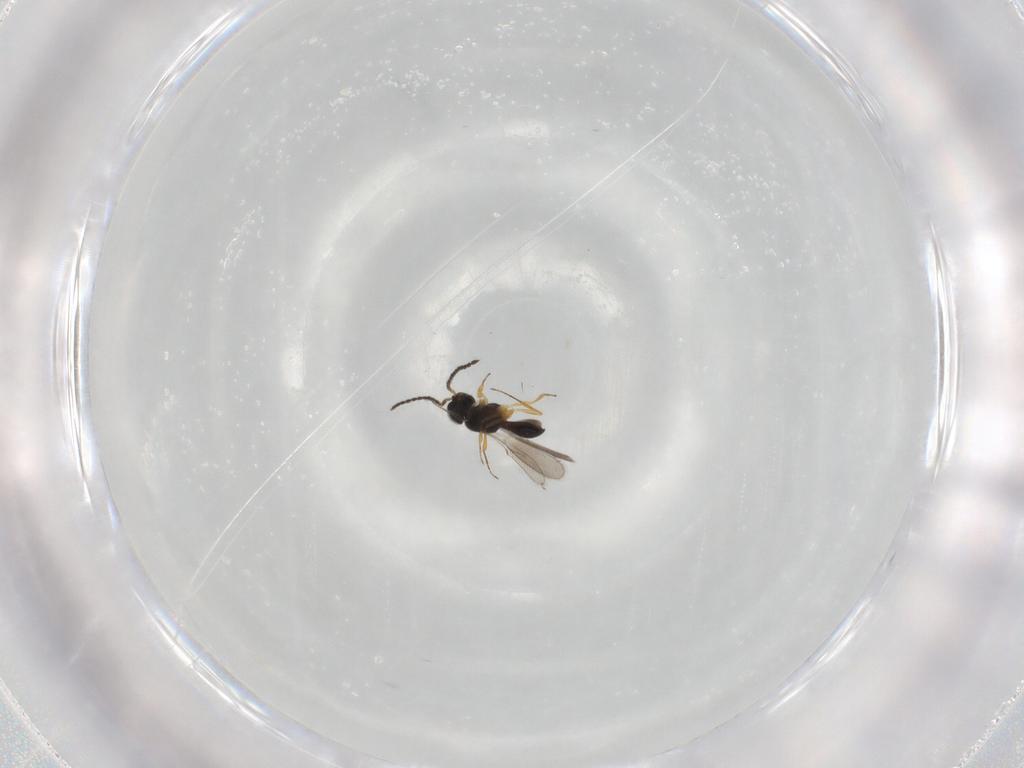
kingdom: Animalia
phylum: Arthropoda
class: Insecta
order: Hymenoptera
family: Scelionidae
